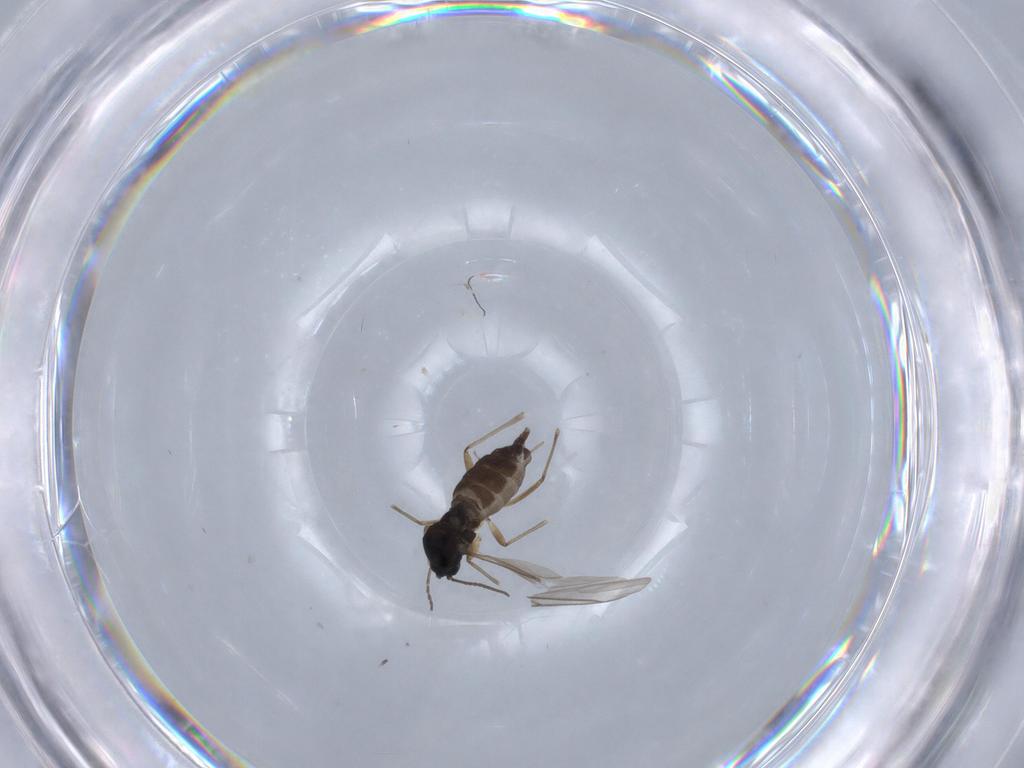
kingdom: Animalia
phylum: Arthropoda
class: Insecta
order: Diptera
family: Sciaridae
